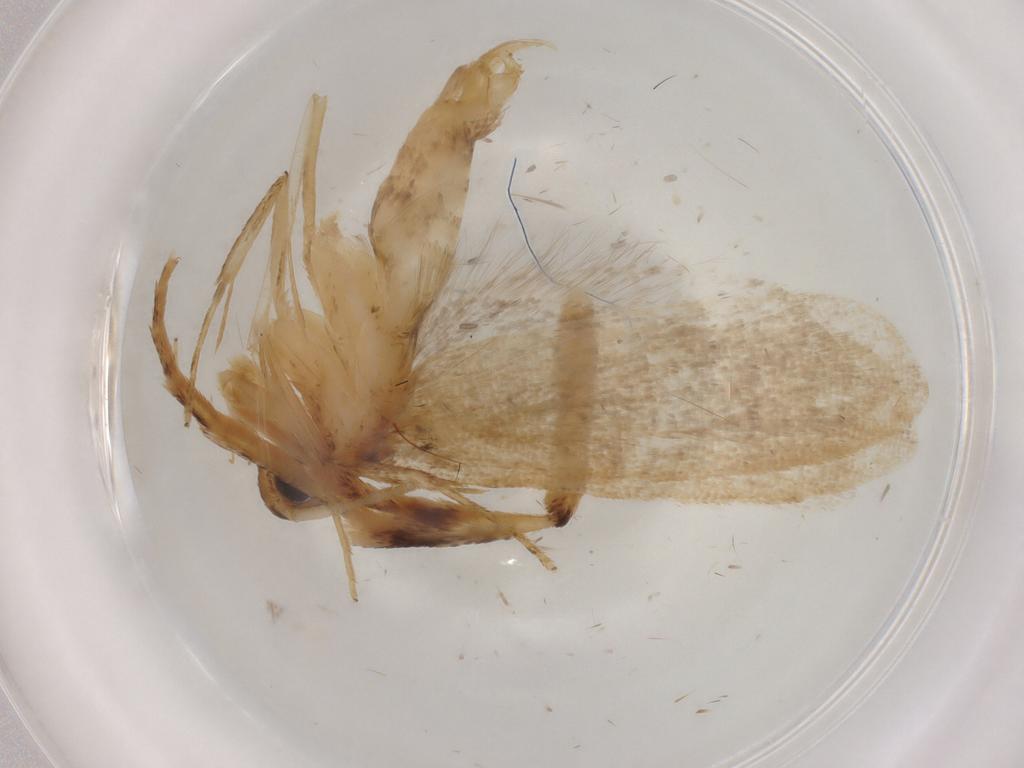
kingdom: Animalia
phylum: Arthropoda
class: Insecta
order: Lepidoptera
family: Lecithoceridae
